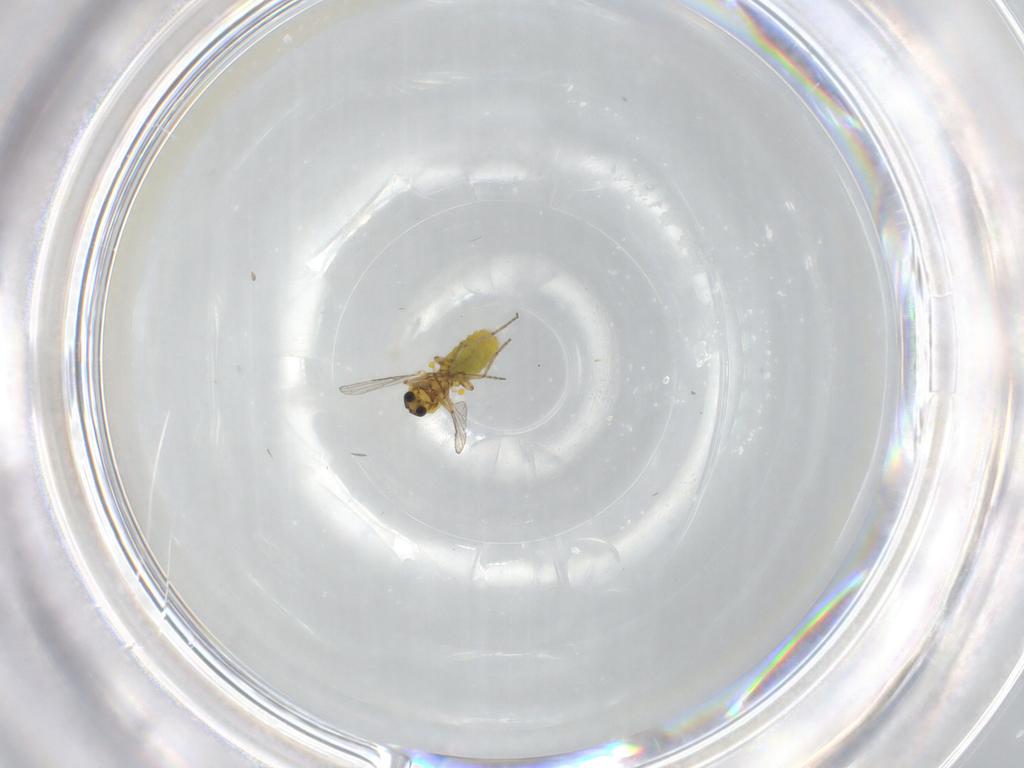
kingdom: Animalia
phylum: Arthropoda
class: Insecta
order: Diptera
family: Ceratopogonidae
